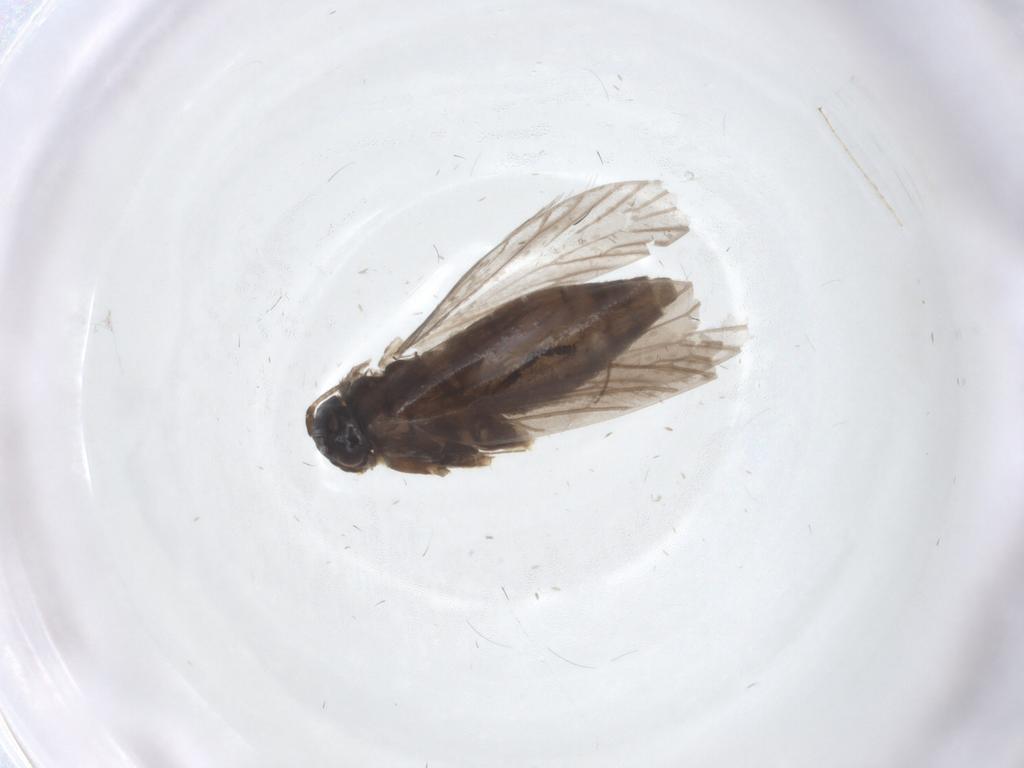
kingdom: Animalia
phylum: Arthropoda
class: Insecta
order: Lepidoptera
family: Micropterigidae
